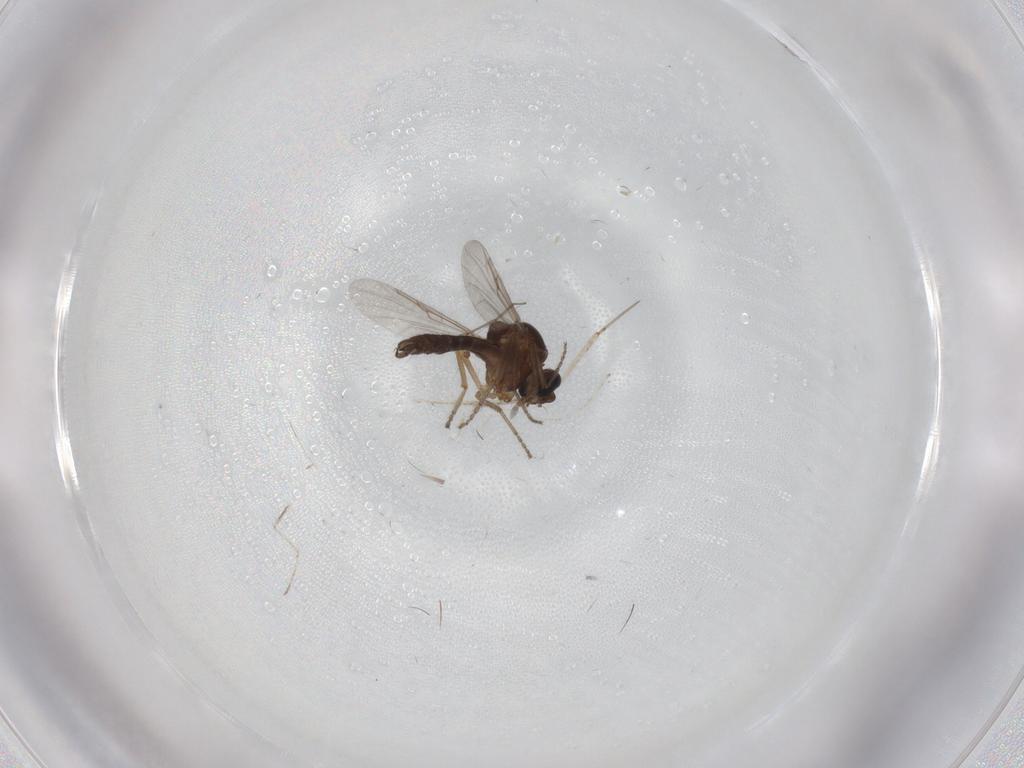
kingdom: Animalia
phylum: Arthropoda
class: Insecta
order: Diptera
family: Ceratopogonidae
